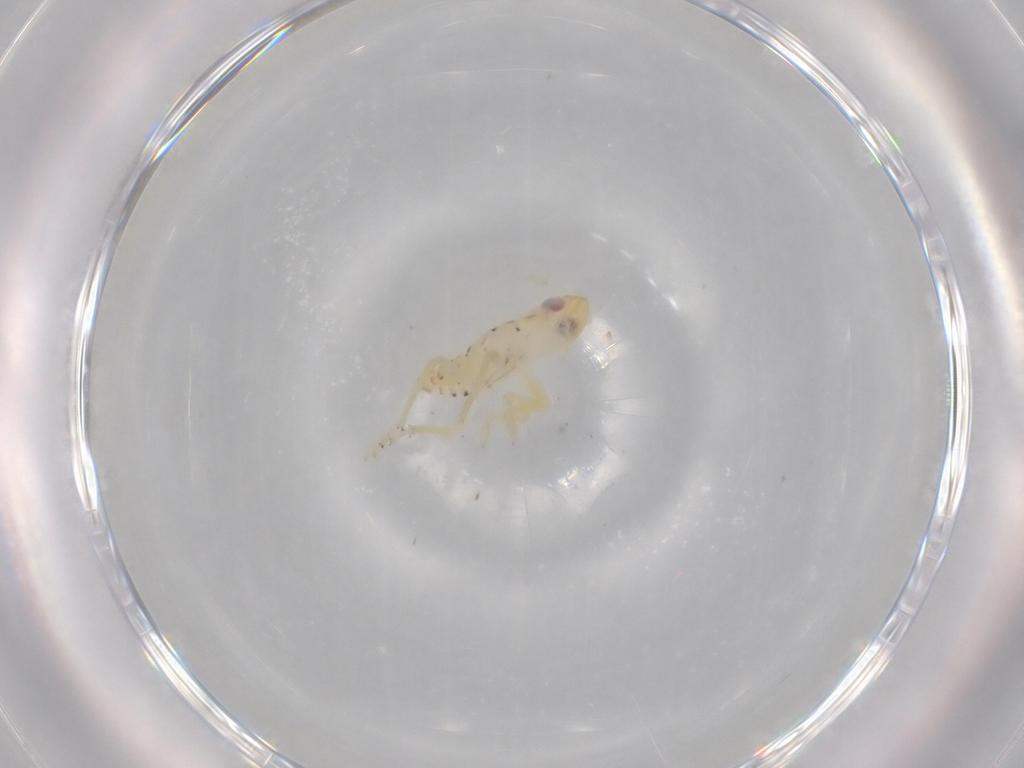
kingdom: Animalia
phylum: Arthropoda
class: Insecta
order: Hemiptera
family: Tropiduchidae
